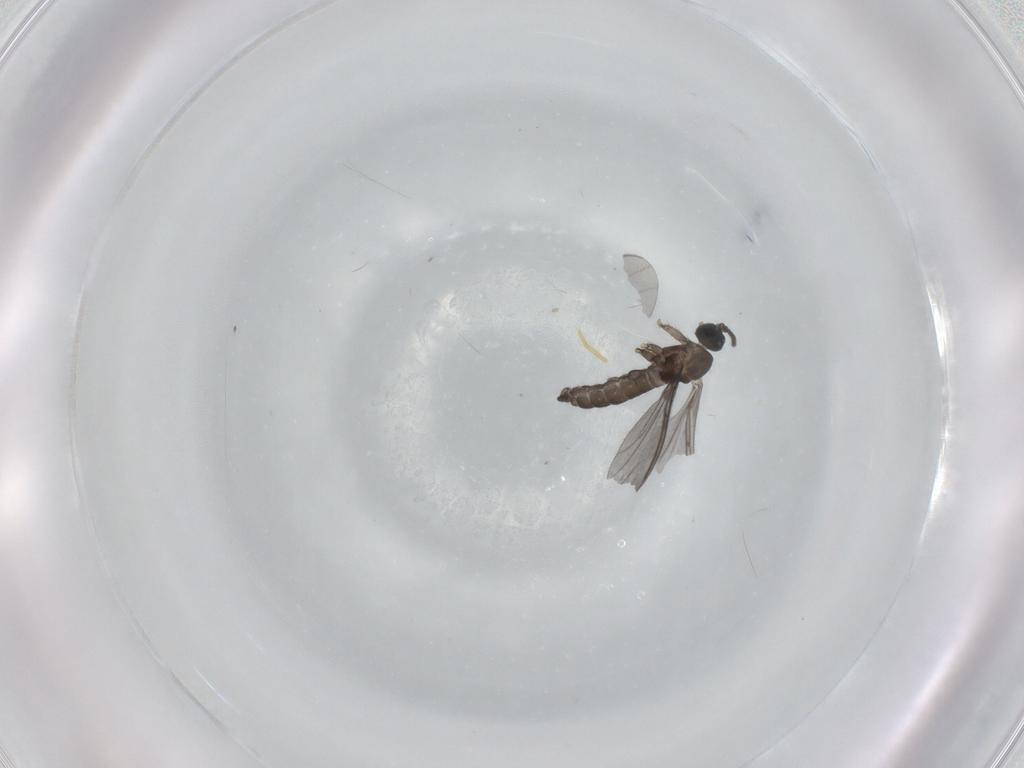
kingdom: Animalia
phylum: Arthropoda
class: Insecta
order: Diptera
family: Sciaridae
